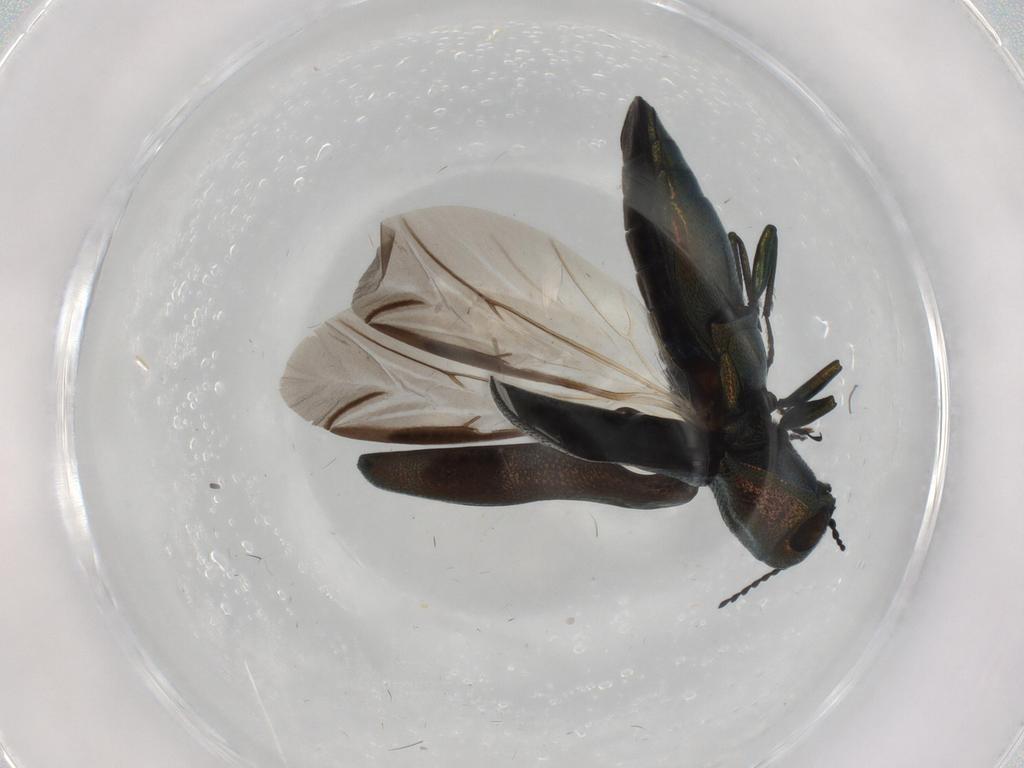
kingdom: Animalia
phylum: Arthropoda
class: Insecta
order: Coleoptera
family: Buprestidae
